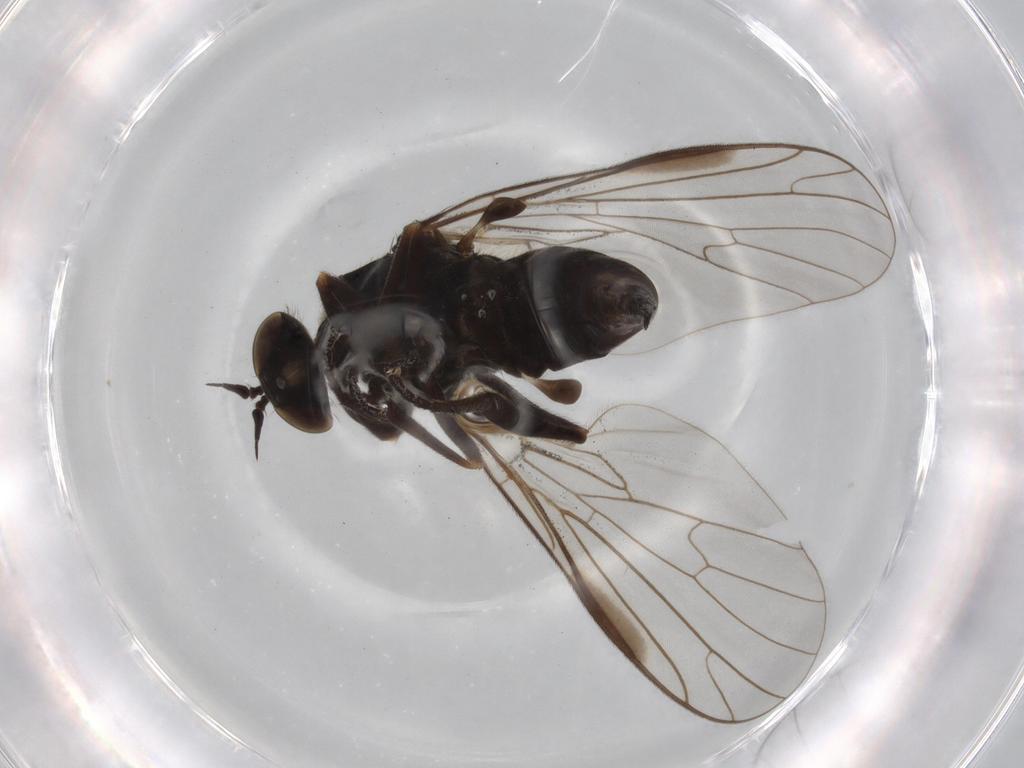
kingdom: Animalia
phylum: Arthropoda
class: Insecta
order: Diptera
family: Empididae
